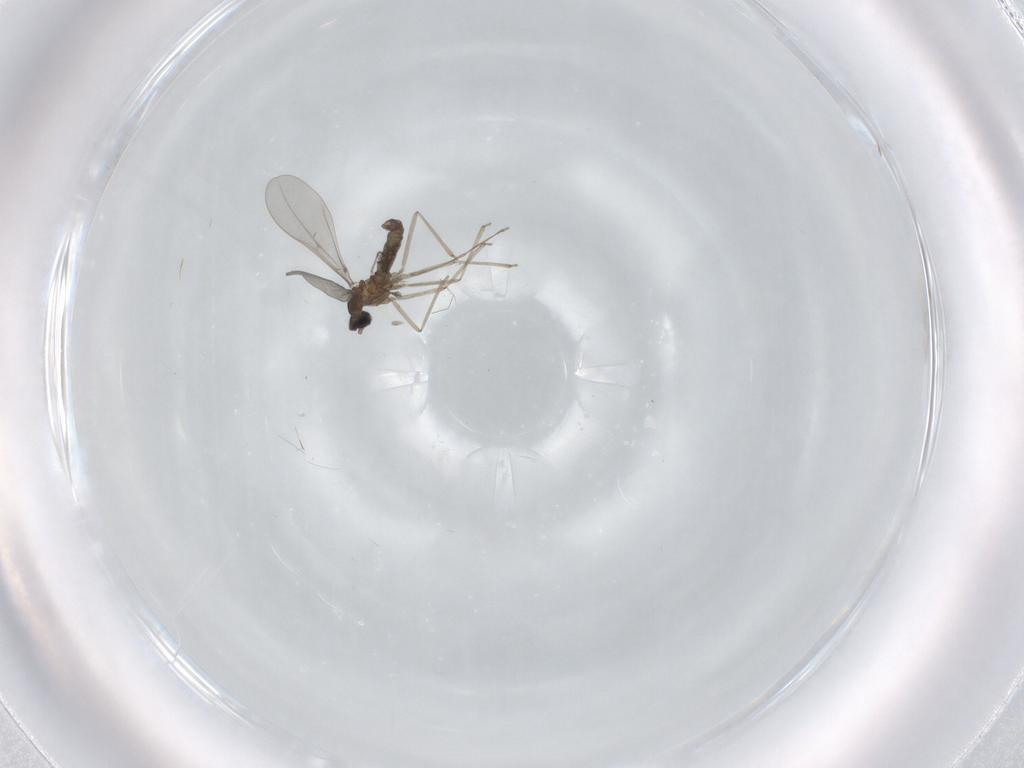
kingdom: Animalia
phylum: Arthropoda
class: Insecta
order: Diptera
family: Cecidomyiidae
